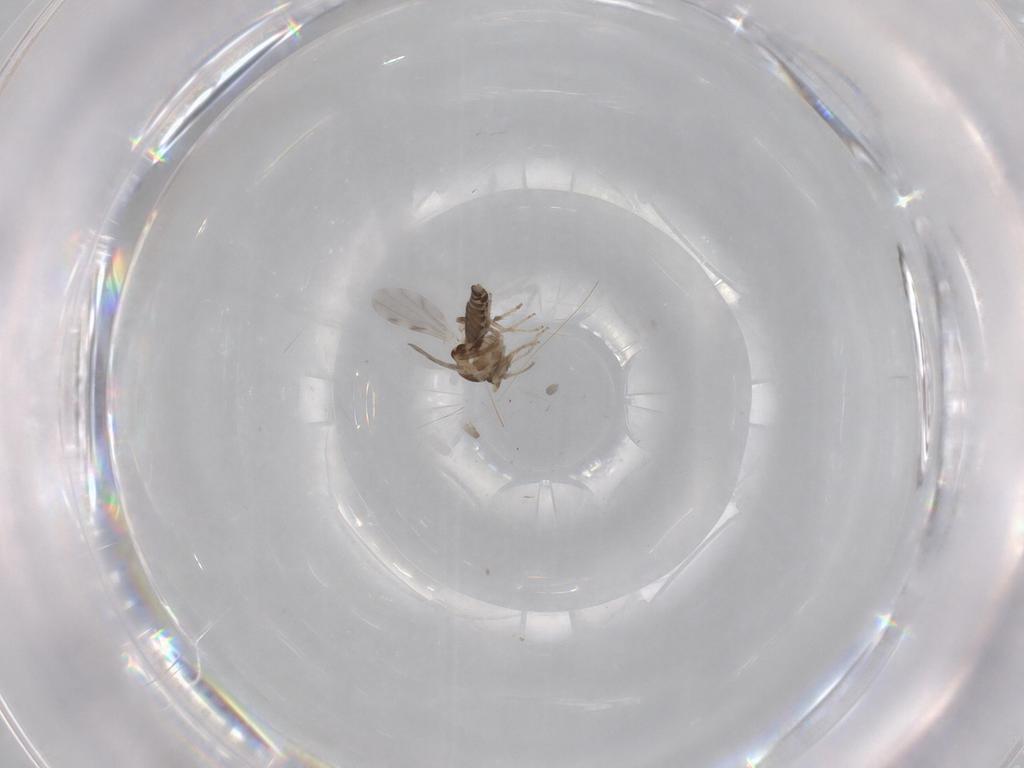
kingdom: Animalia
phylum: Arthropoda
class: Insecta
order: Diptera
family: Ceratopogonidae
